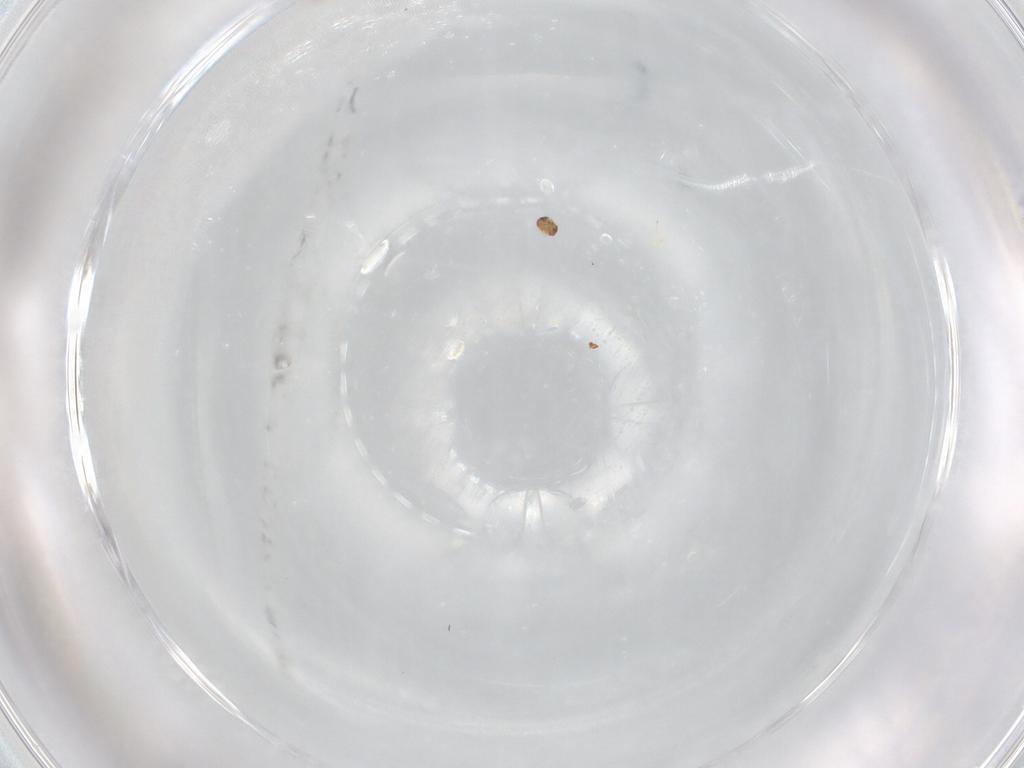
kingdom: Animalia
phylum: Arthropoda
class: Insecta
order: Hymenoptera
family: Trichogrammatidae
